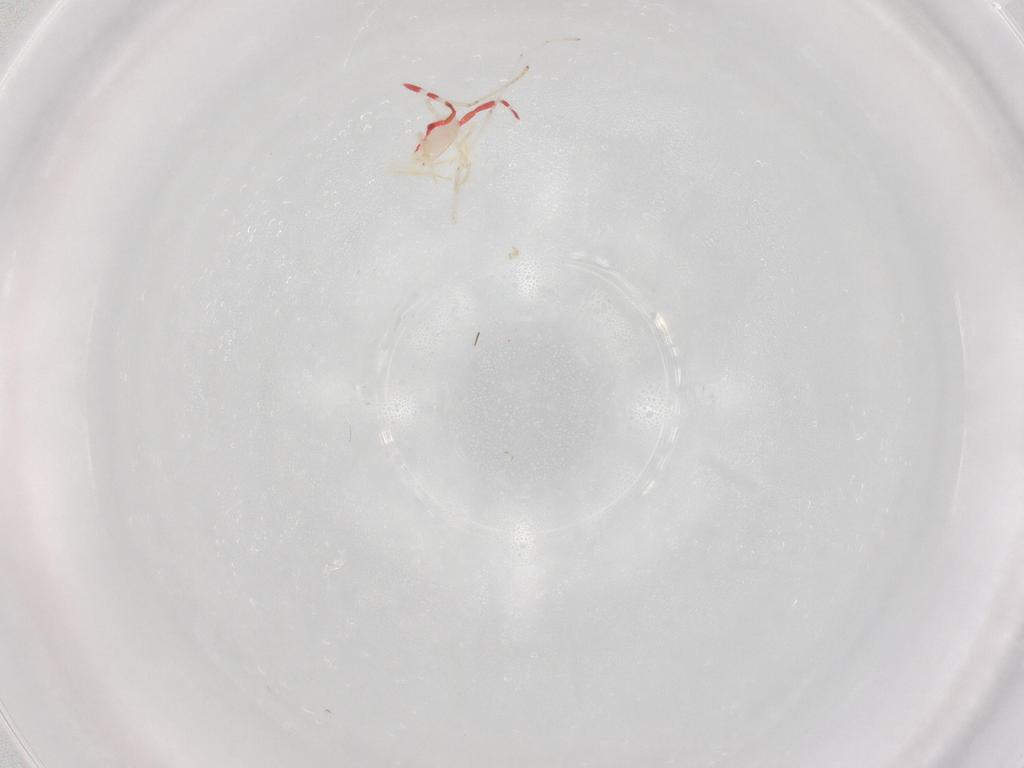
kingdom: Animalia
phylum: Arthropoda
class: Insecta
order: Hemiptera
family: Miridae
